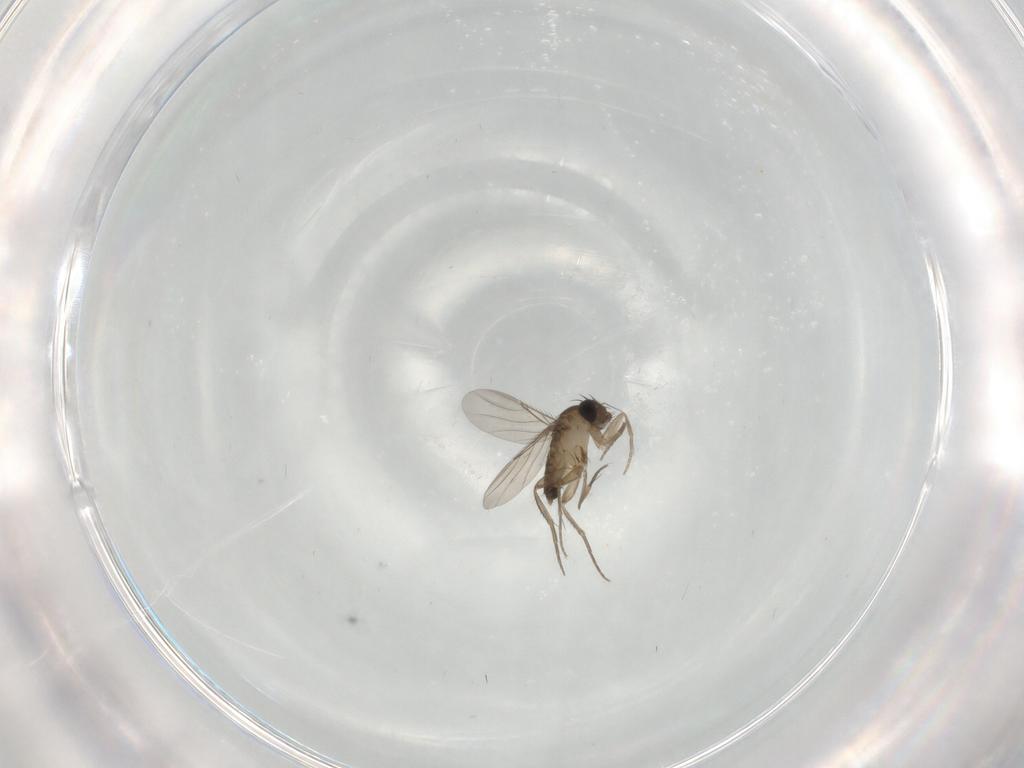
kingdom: Animalia
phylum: Arthropoda
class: Insecta
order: Diptera
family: Phoridae
